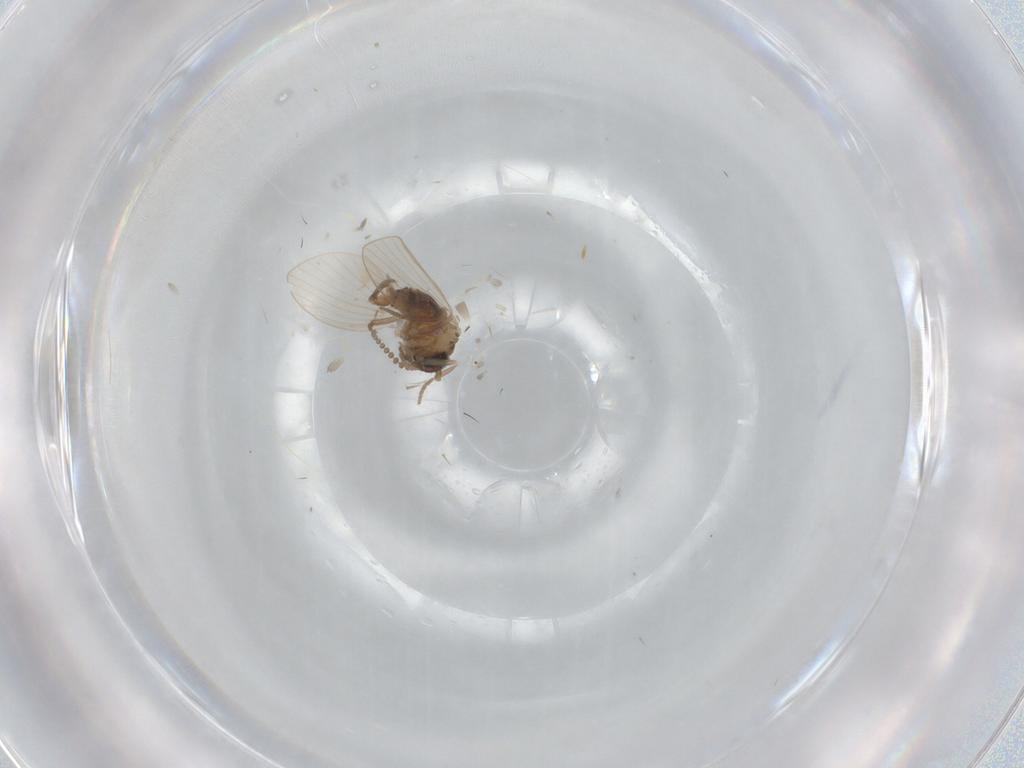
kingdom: Animalia
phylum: Arthropoda
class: Insecta
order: Diptera
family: Psychodidae
